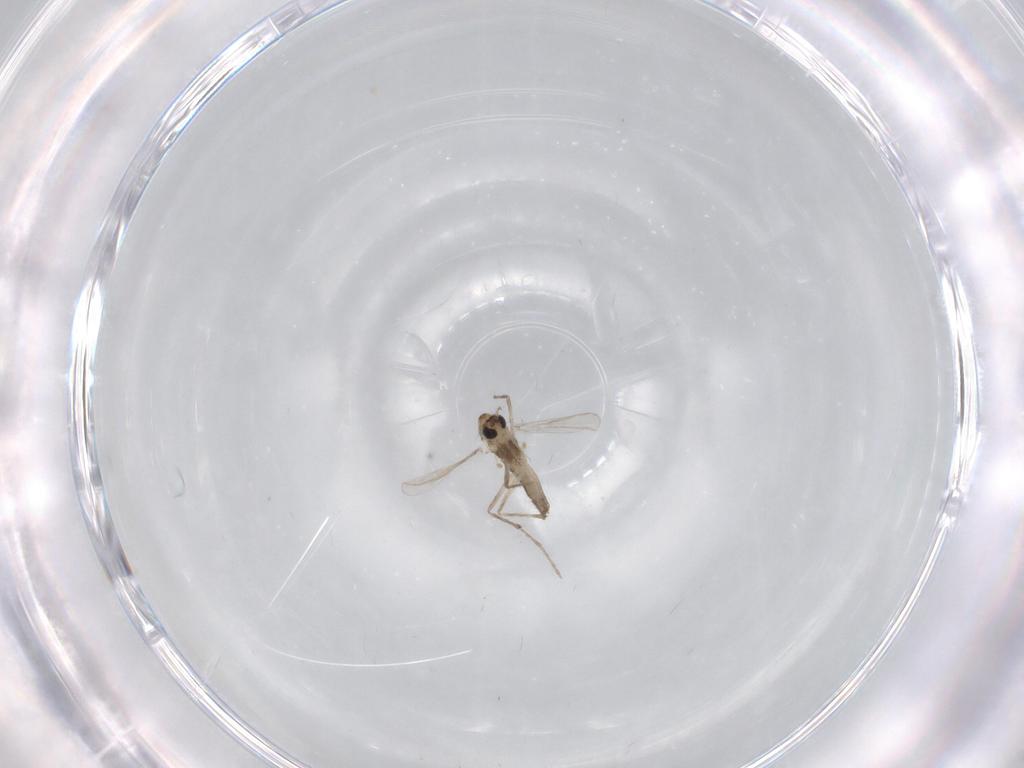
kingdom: Animalia
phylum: Arthropoda
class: Insecta
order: Diptera
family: Chironomidae
